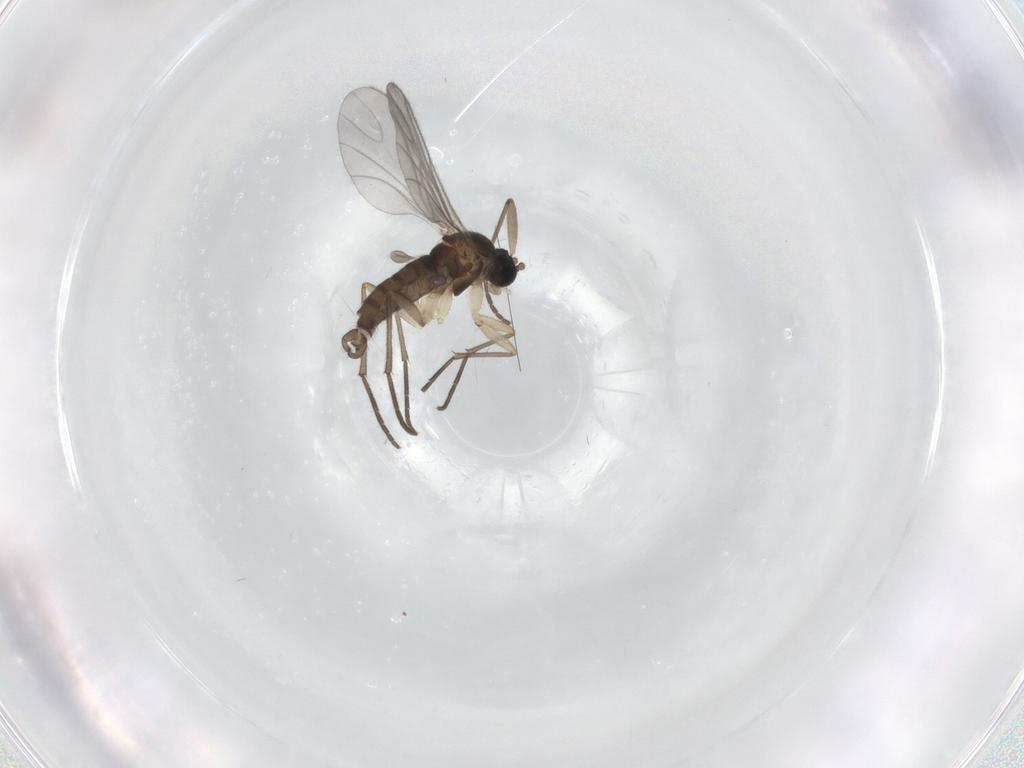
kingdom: Animalia
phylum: Arthropoda
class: Insecta
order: Diptera
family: Sciaridae
